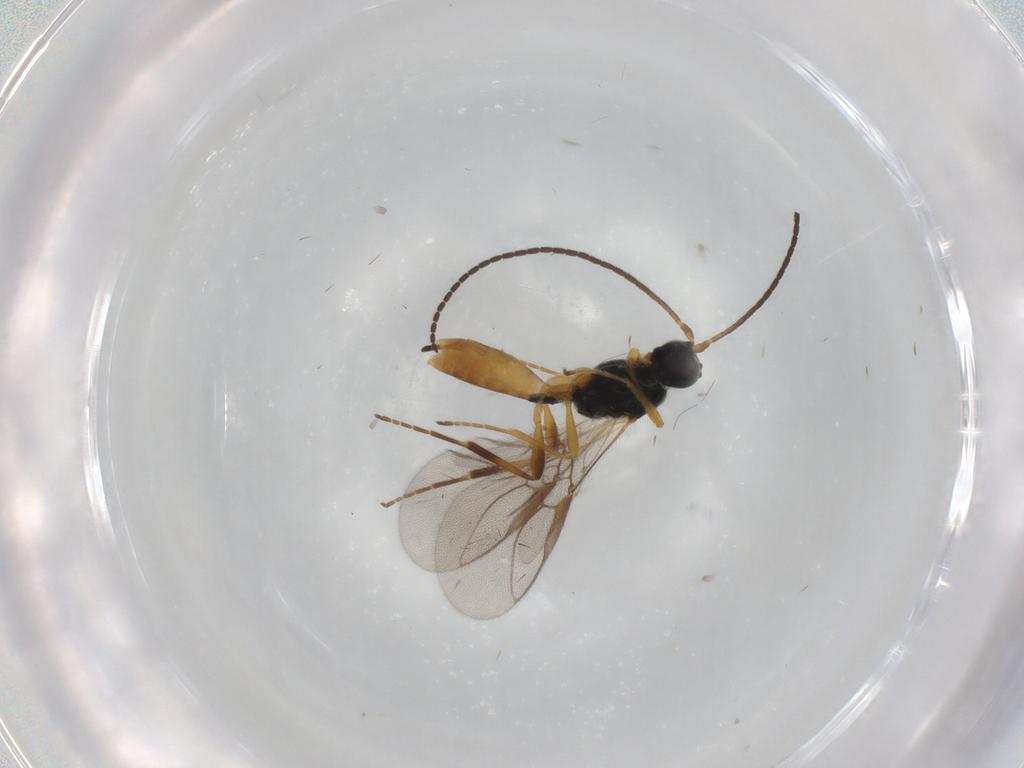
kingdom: Animalia
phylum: Arthropoda
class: Insecta
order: Hymenoptera
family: Braconidae
